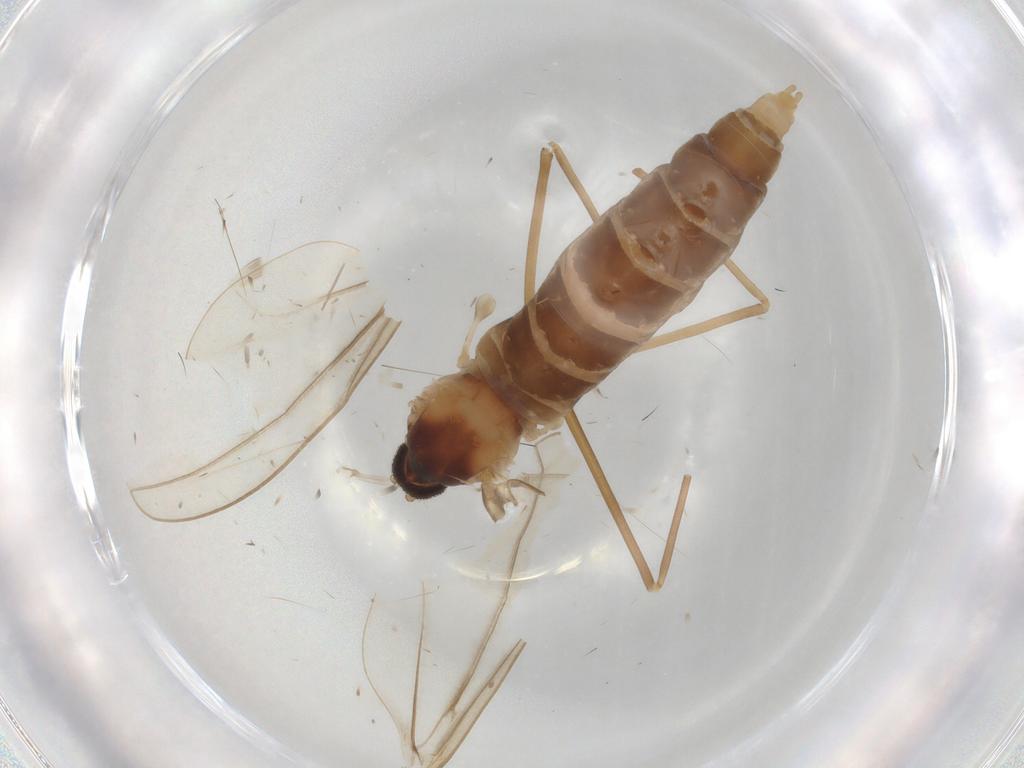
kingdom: Animalia
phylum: Arthropoda
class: Insecta
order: Diptera
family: Cecidomyiidae
